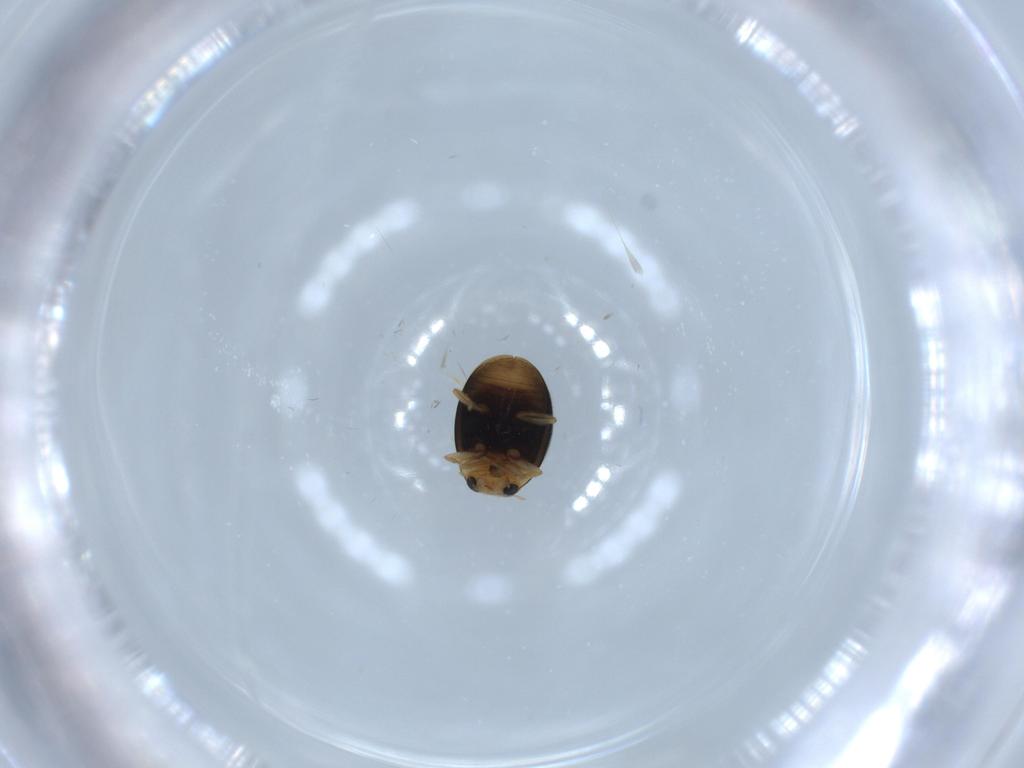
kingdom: Animalia
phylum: Arthropoda
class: Insecta
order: Coleoptera
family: Coccinellidae
